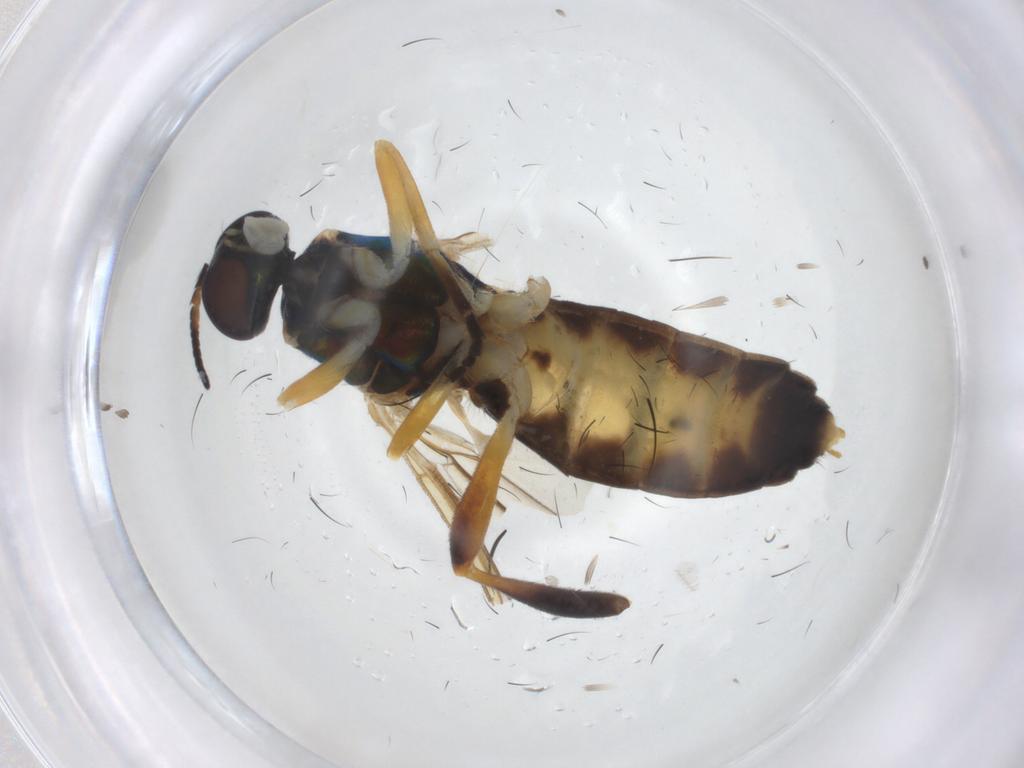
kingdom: Animalia
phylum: Arthropoda
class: Insecta
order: Diptera
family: Stratiomyidae
